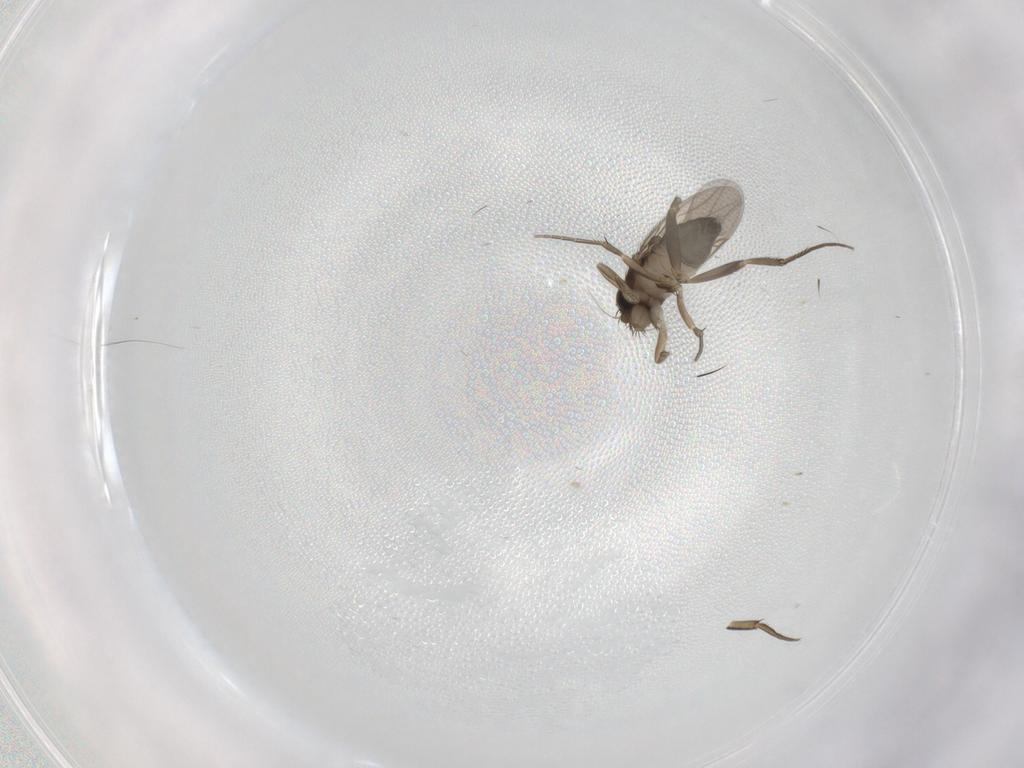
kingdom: Animalia
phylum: Arthropoda
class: Insecta
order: Diptera
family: Phoridae
